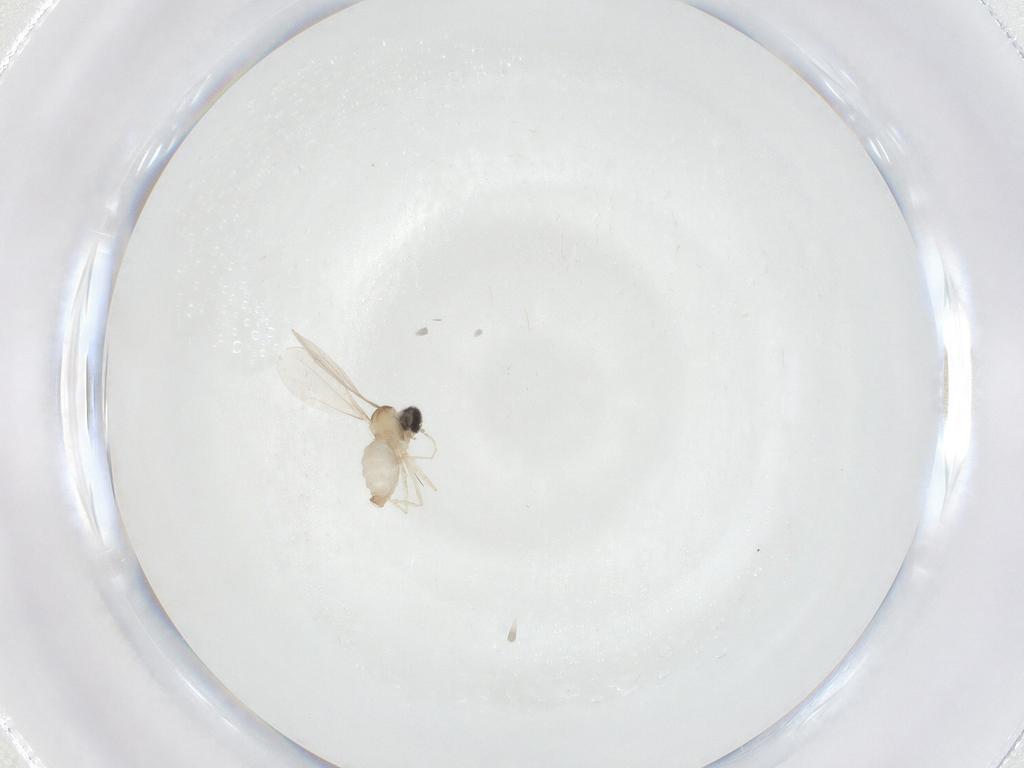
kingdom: Animalia
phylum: Arthropoda
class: Insecta
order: Diptera
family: Cecidomyiidae
